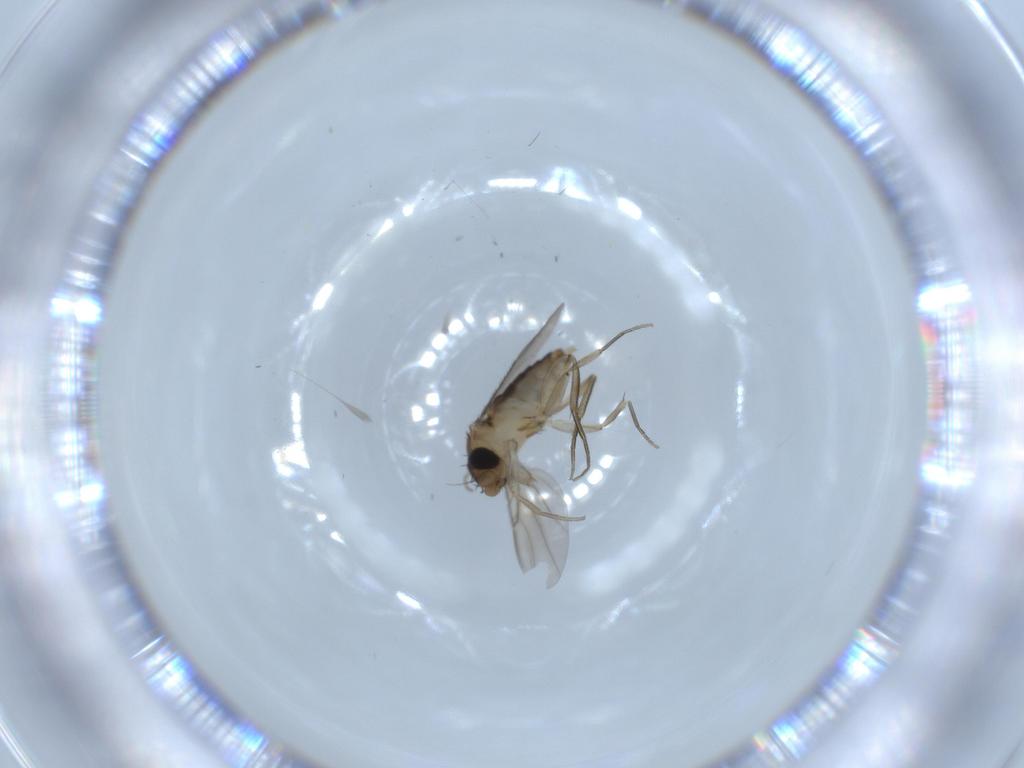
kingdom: Animalia
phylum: Arthropoda
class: Insecta
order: Diptera
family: Phoridae
